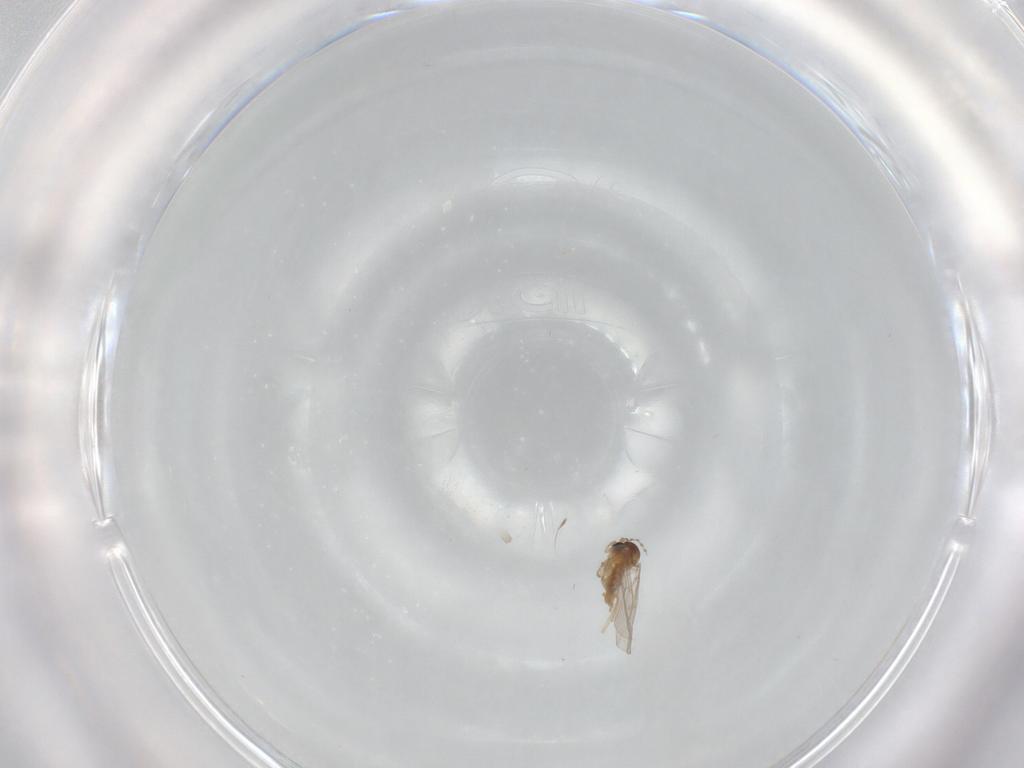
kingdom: Animalia
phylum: Arthropoda
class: Insecta
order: Diptera
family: Cecidomyiidae
